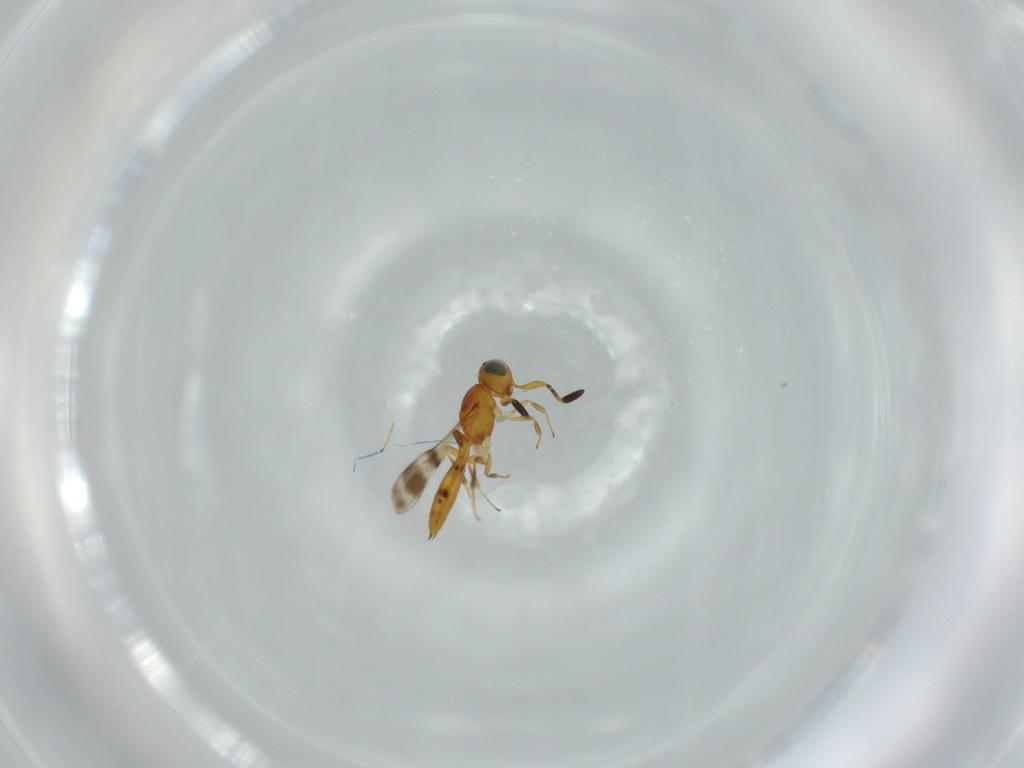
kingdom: Animalia
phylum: Arthropoda
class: Insecta
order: Hymenoptera
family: Scelionidae
